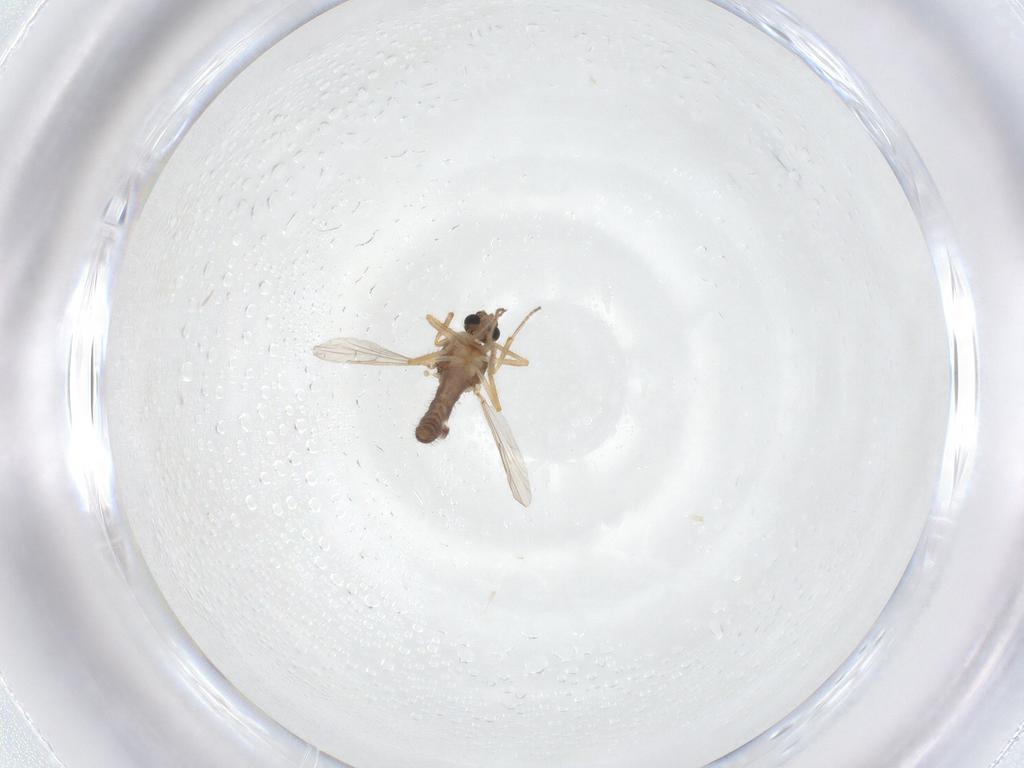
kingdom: Animalia
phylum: Arthropoda
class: Insecta
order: Diptera
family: Ceratopogonidae
